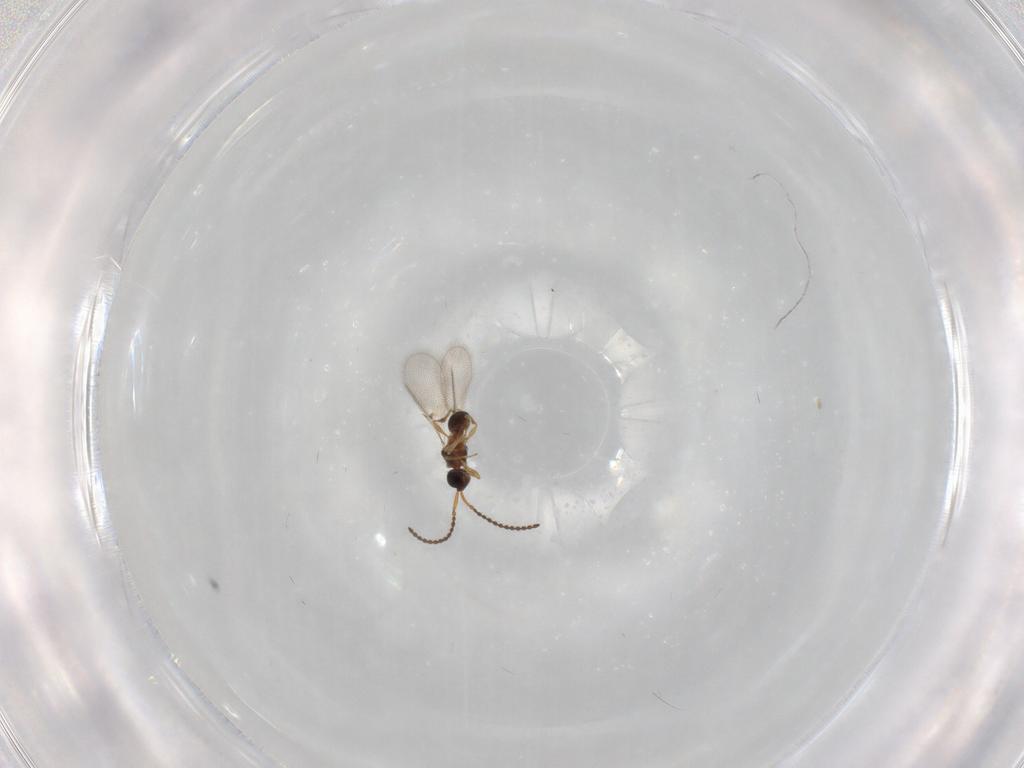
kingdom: Animalia
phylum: Arthropoda
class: Insecta
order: Hymenoptera
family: Diapriidae
